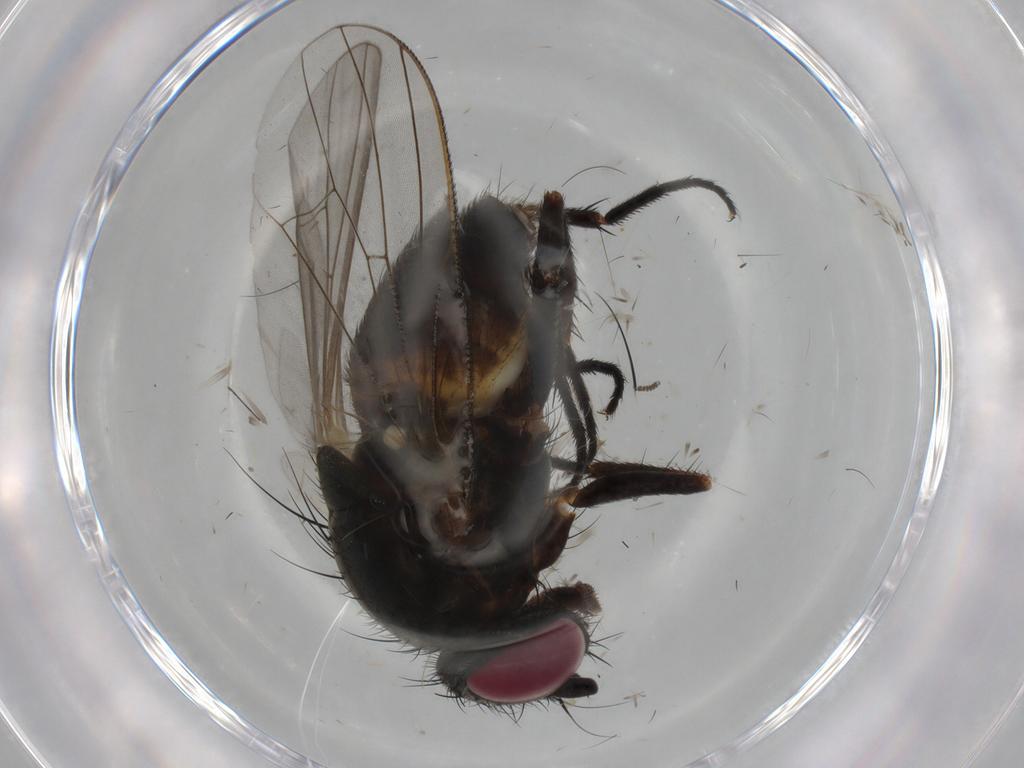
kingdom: Animalia
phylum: Arthropoda
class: Insecta
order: Diptera
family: Fannia
